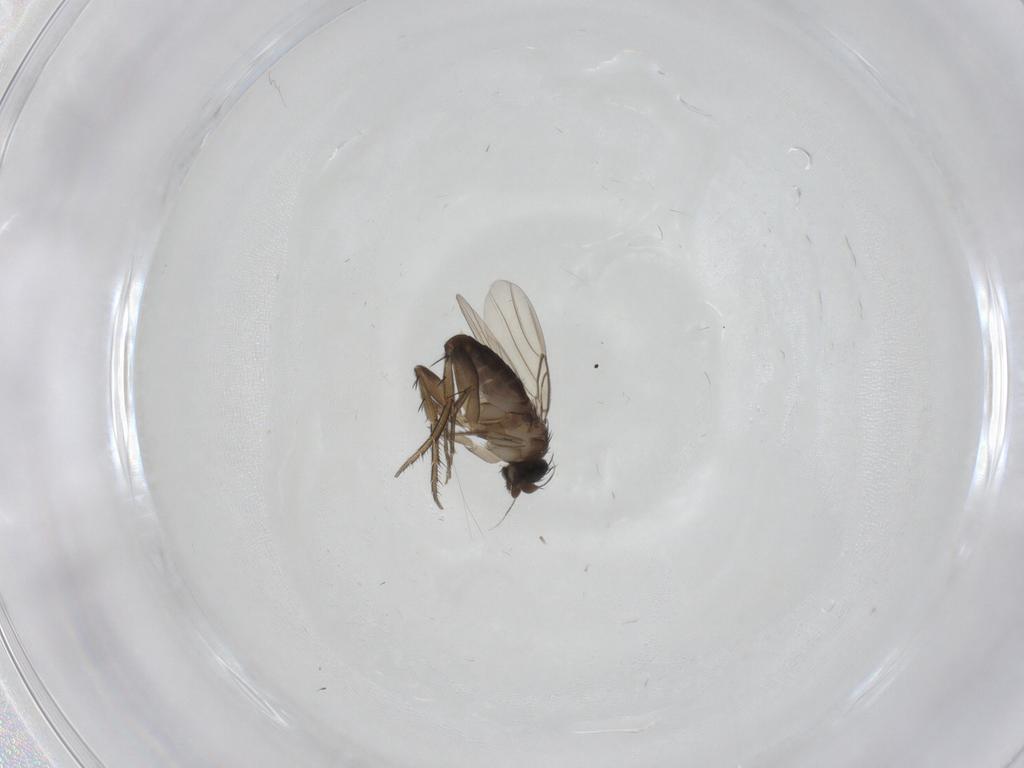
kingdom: Animalia
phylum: Arthropoda
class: Insecta
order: Diptera
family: Phoridae
